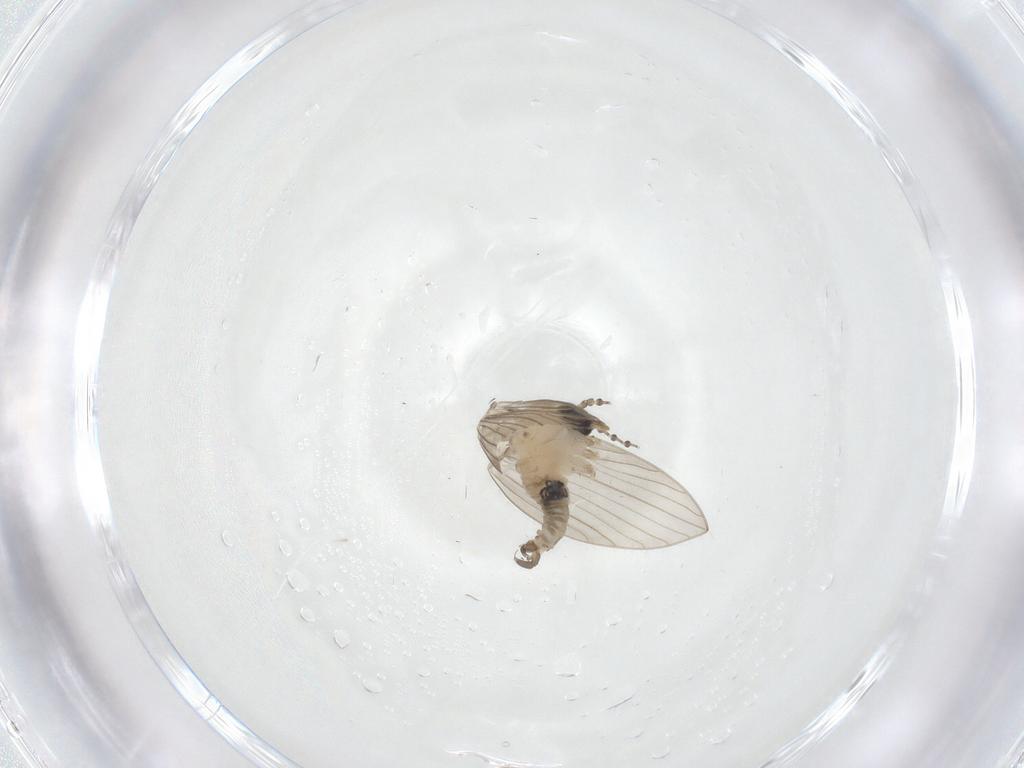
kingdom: Animalia
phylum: Arthropoda
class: Insecta
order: Diptera
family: Psychodidae
